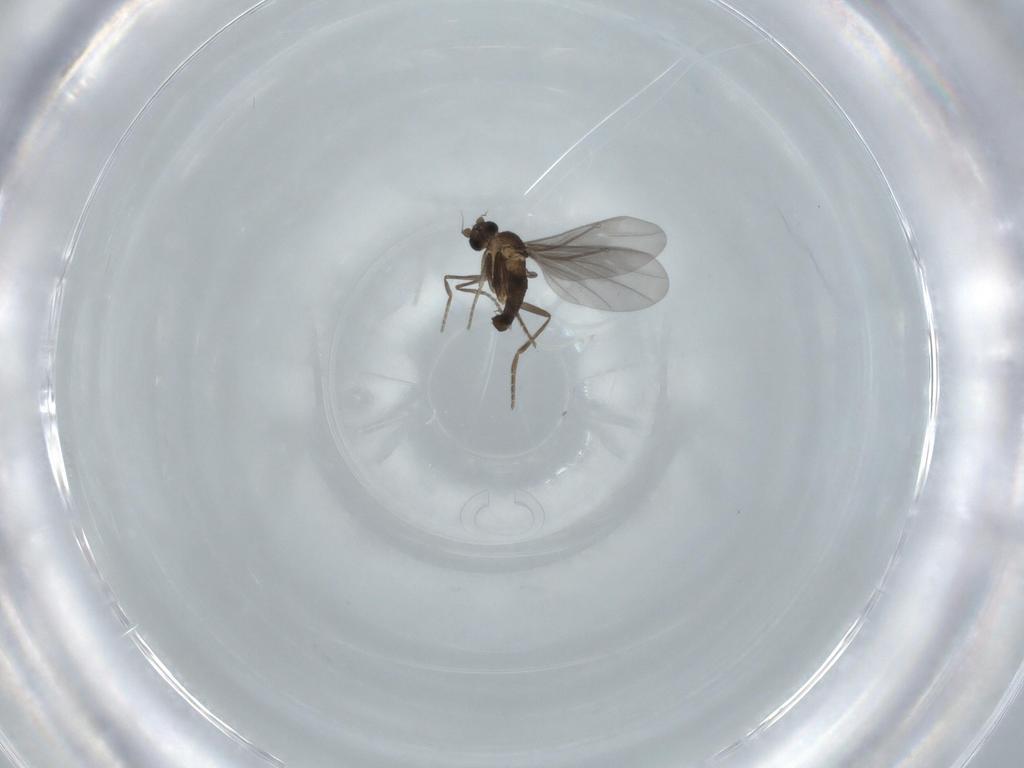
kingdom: Animalia
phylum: Arthropoda
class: Insecta
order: Diptera
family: Phoridae
